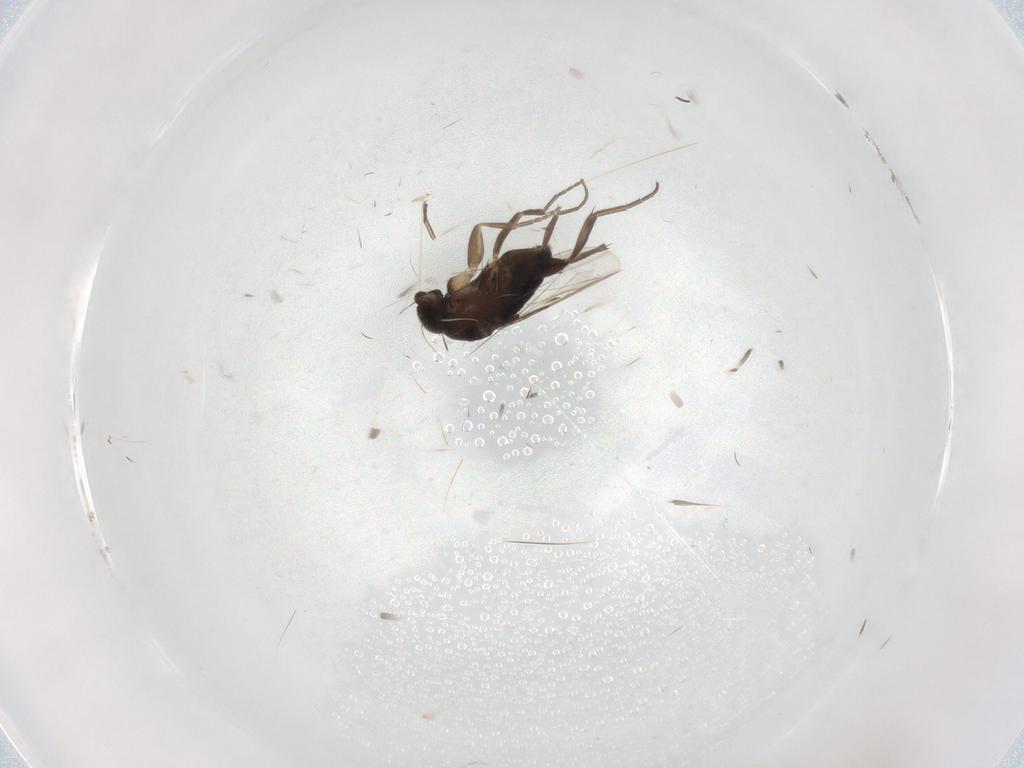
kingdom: Animalia
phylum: Arthropoda
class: Insecta
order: Diptera
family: Phoridae
